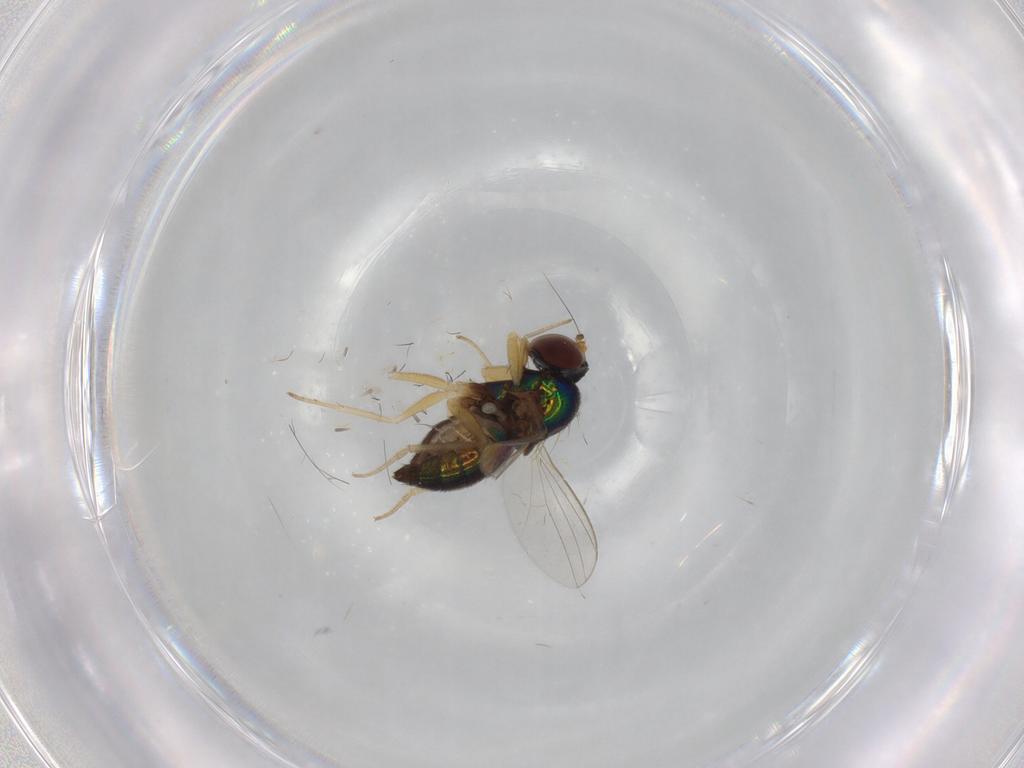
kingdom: Animalia
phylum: Arthropoda
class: Insecta
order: Diptera
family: Dolichopodidae
